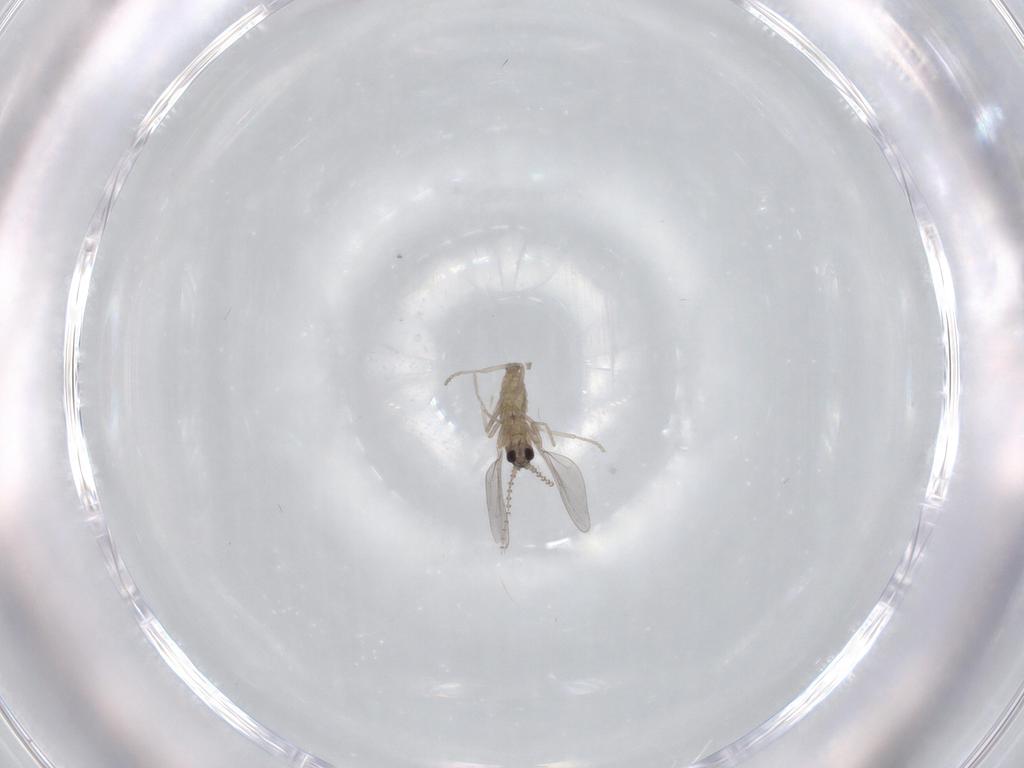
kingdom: Animalia
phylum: Arthropoda
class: Insecta
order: Diptera
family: Cecidomyiidae
